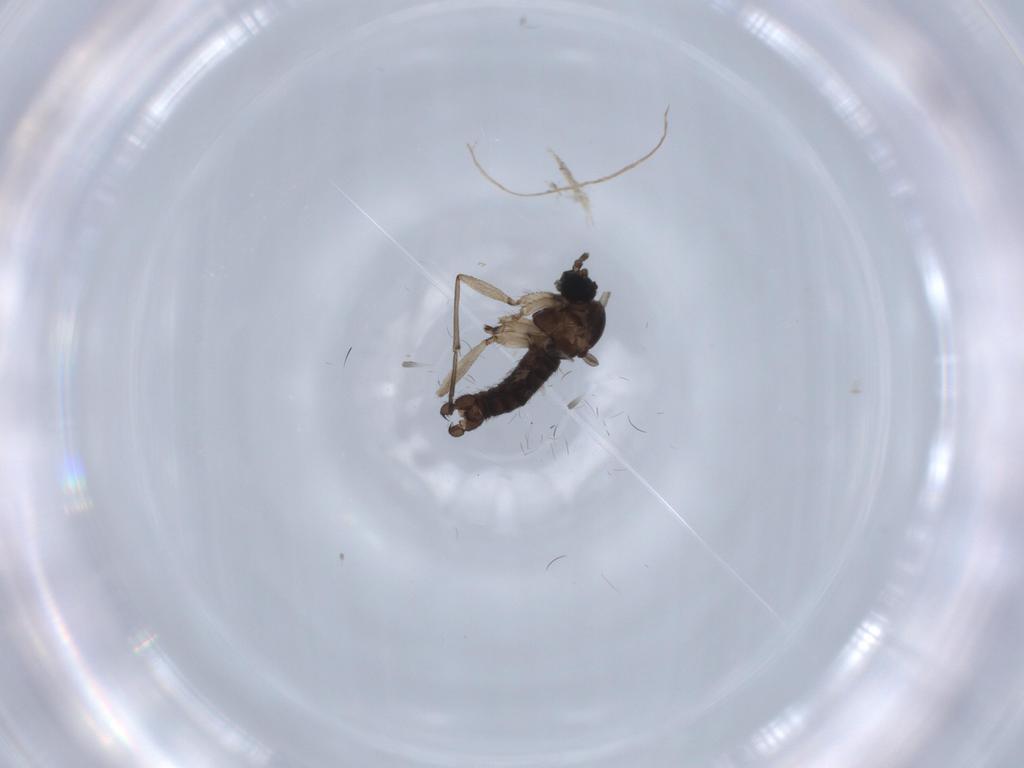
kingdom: Animalia
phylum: Arthropoda
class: Insecta
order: Diptera
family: Sciaridae
